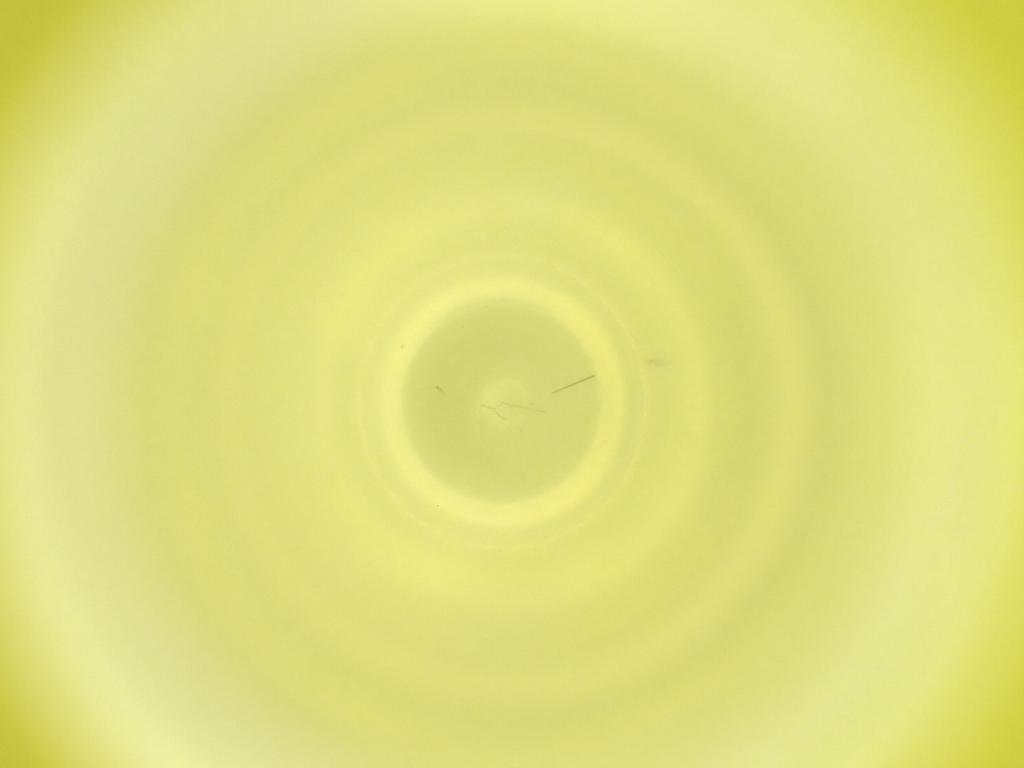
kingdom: Animalia
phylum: Arthropoda
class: Insecta
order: Diptera
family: Cecidomyiidae
